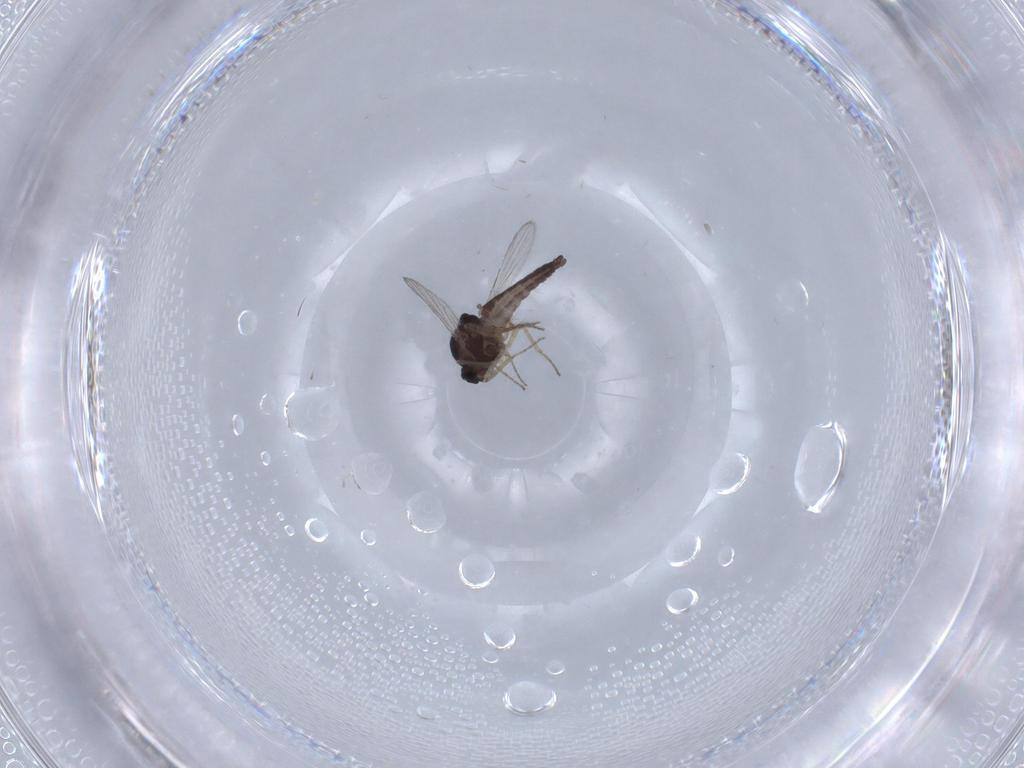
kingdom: Animalia
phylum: Arthropoda
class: Insecta
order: Diptera
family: Ceratopogonidae
